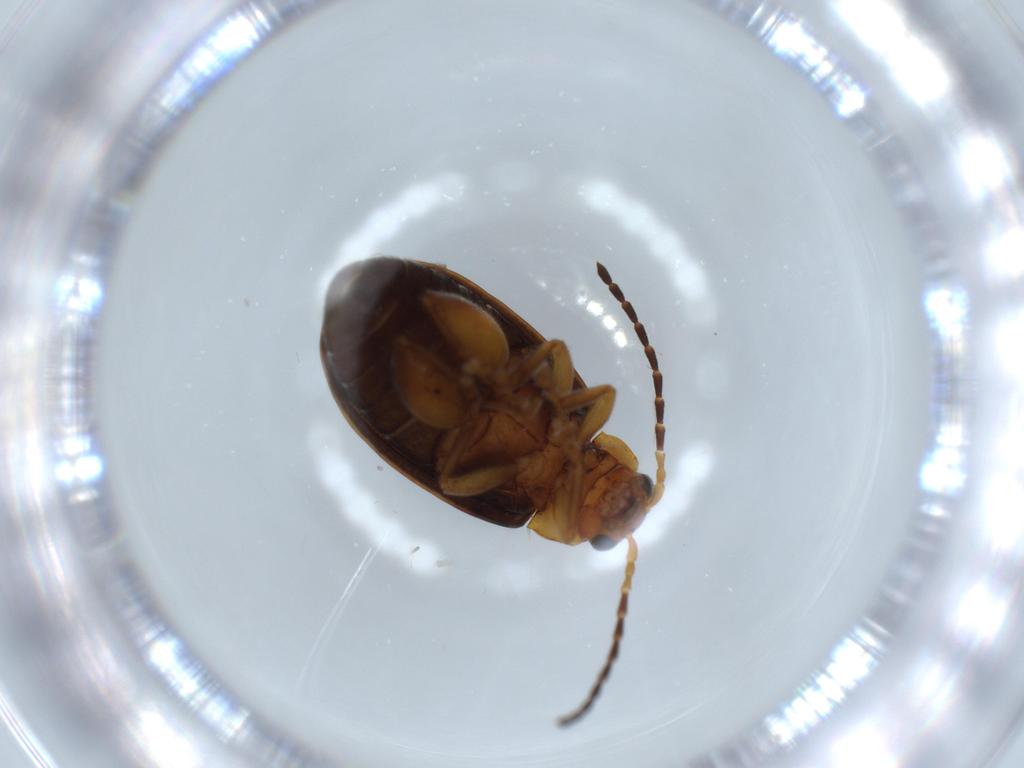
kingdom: Animalia
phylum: Arthropoda
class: Insecta
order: Coleoptera
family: Chrysomelidae
